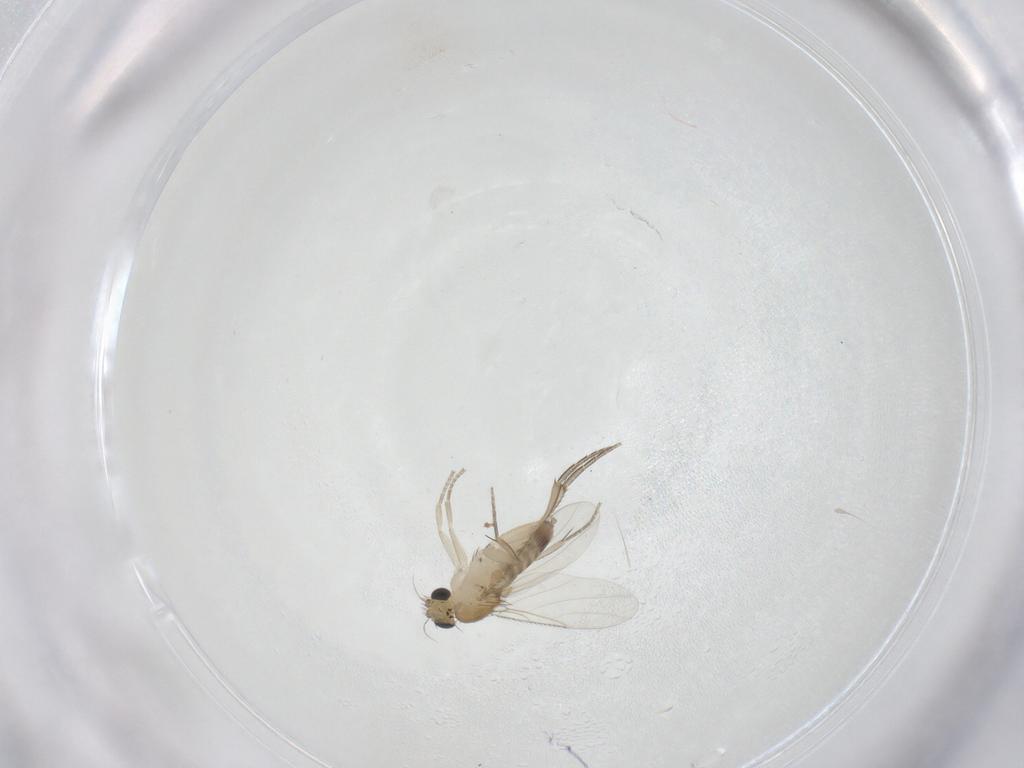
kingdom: Animalia
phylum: Arthropoda
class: Insecta
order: Diptera
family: Phoridae
